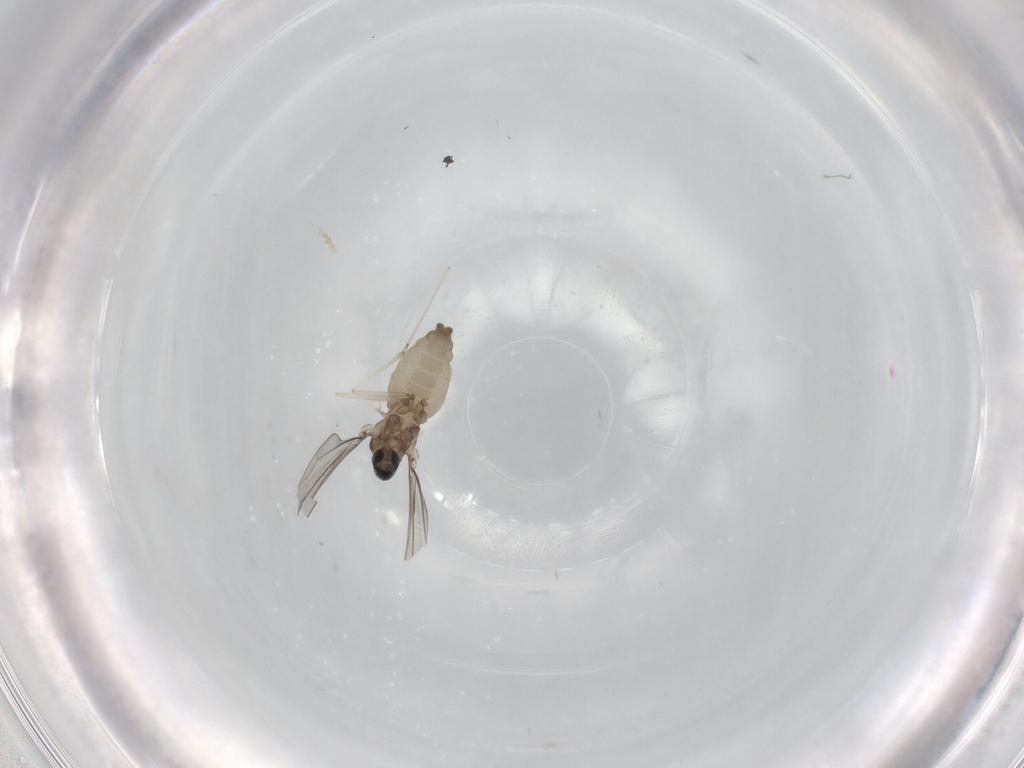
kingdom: Animalia
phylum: Arthropoda
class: Insecta
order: Diptera
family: Cecidomyiidae
